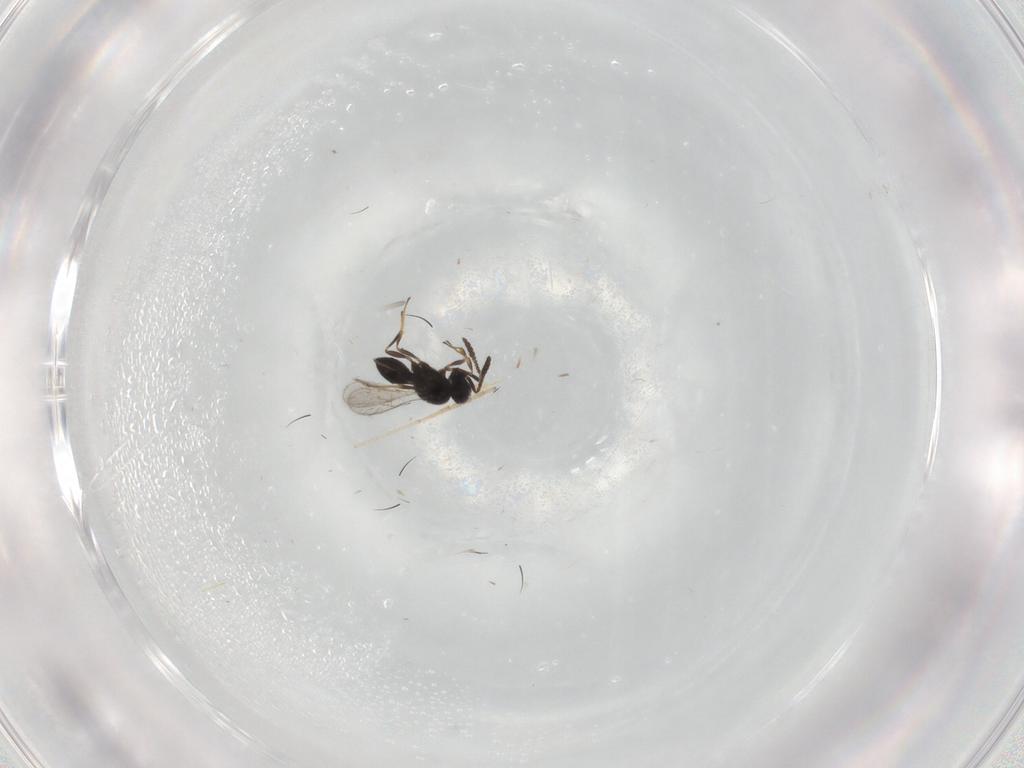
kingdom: Animalia
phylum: Arthropoda
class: Insecta
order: Hymenoptera
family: Scelionidae
